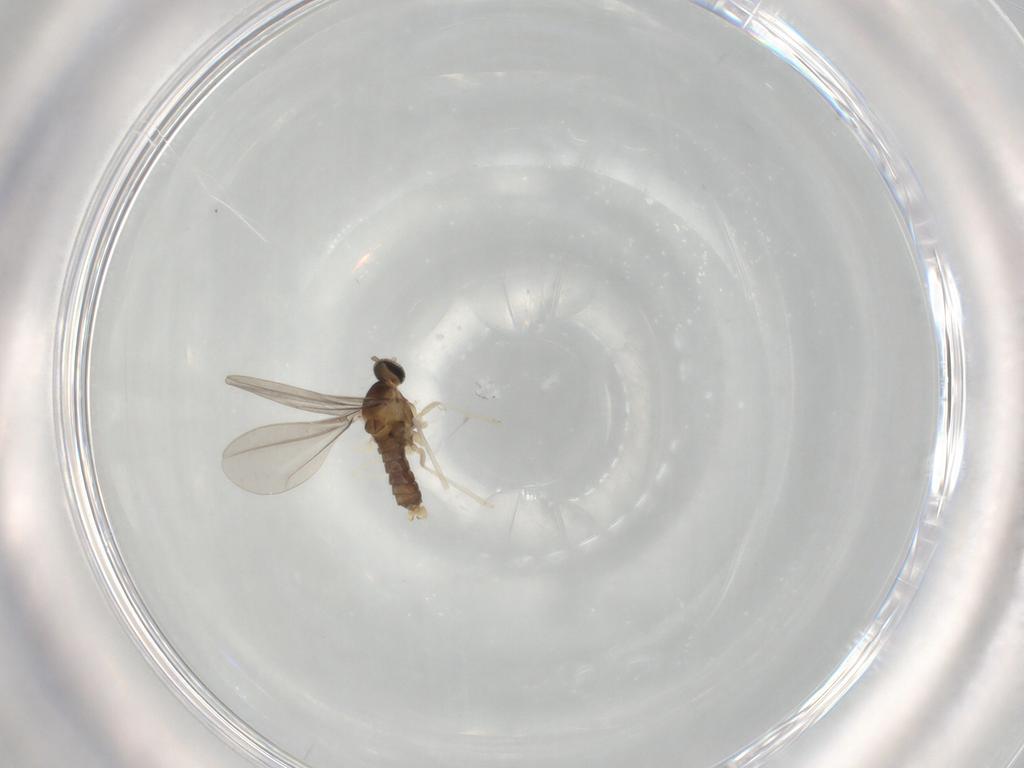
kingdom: Animalia
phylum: Arthropoda
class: Insecta
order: Diptera
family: Cecidomyiidae
